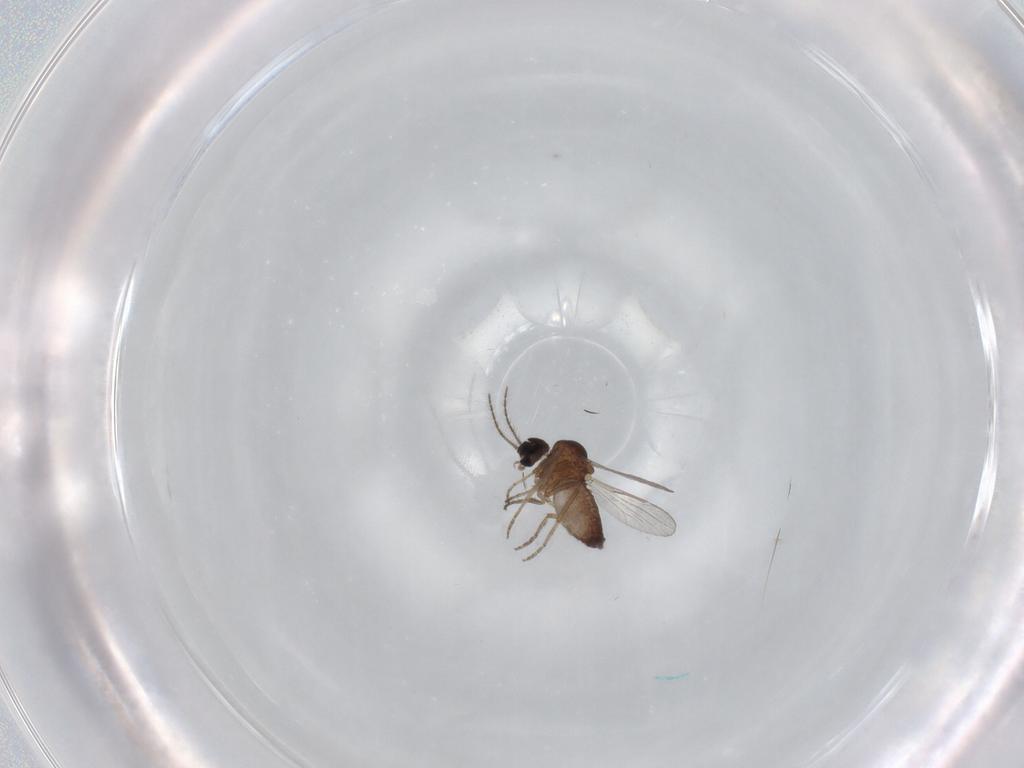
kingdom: Animalia
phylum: Arthropoda
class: Insecta
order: Diptera
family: Ceratopogonidae
